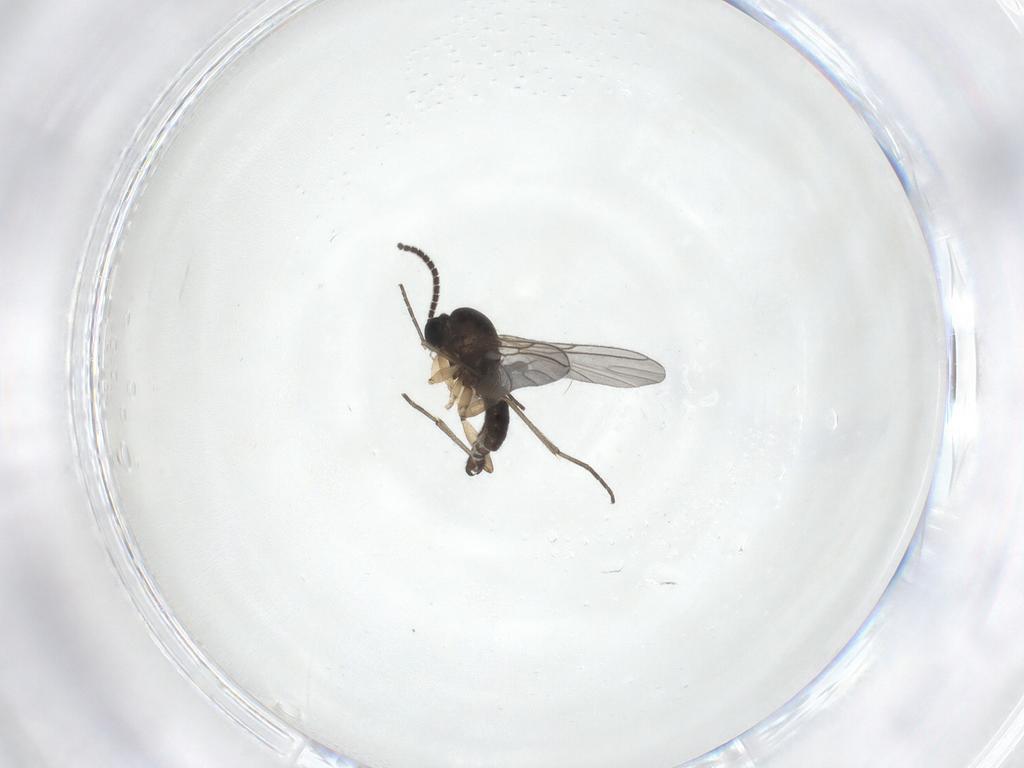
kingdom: Animalia
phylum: Arthropoda
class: Insecta
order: Diptera
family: Sciaridae
